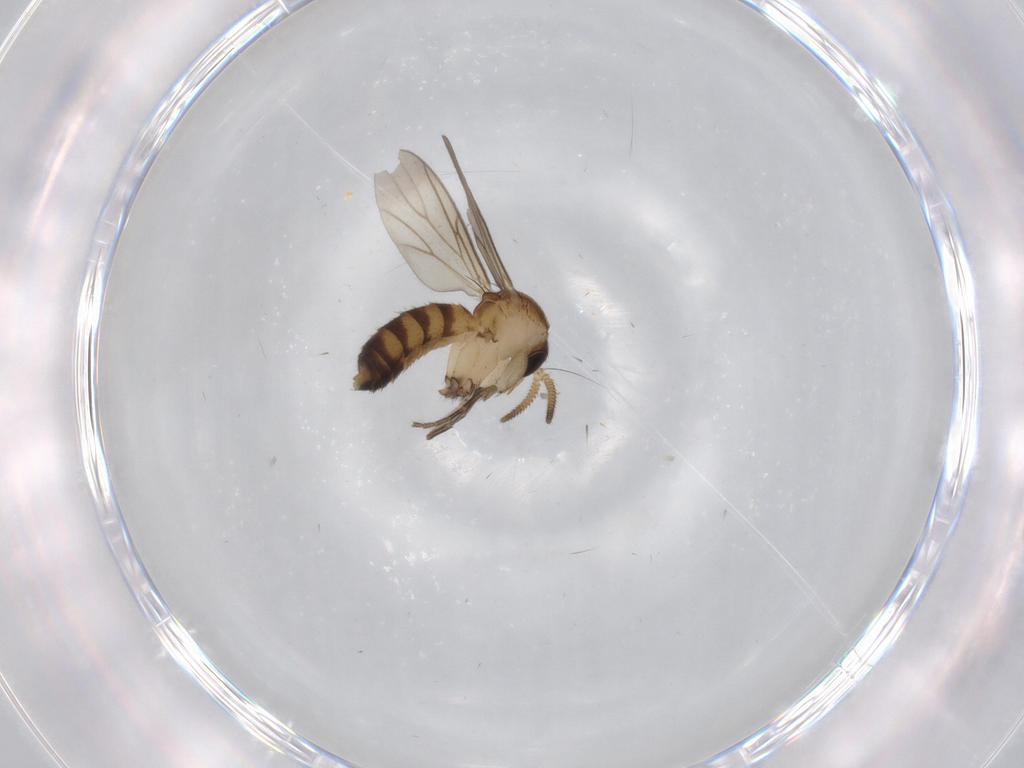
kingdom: Animalia
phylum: Arthropoda
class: Insecta
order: Diptera
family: Mycetophilidae
